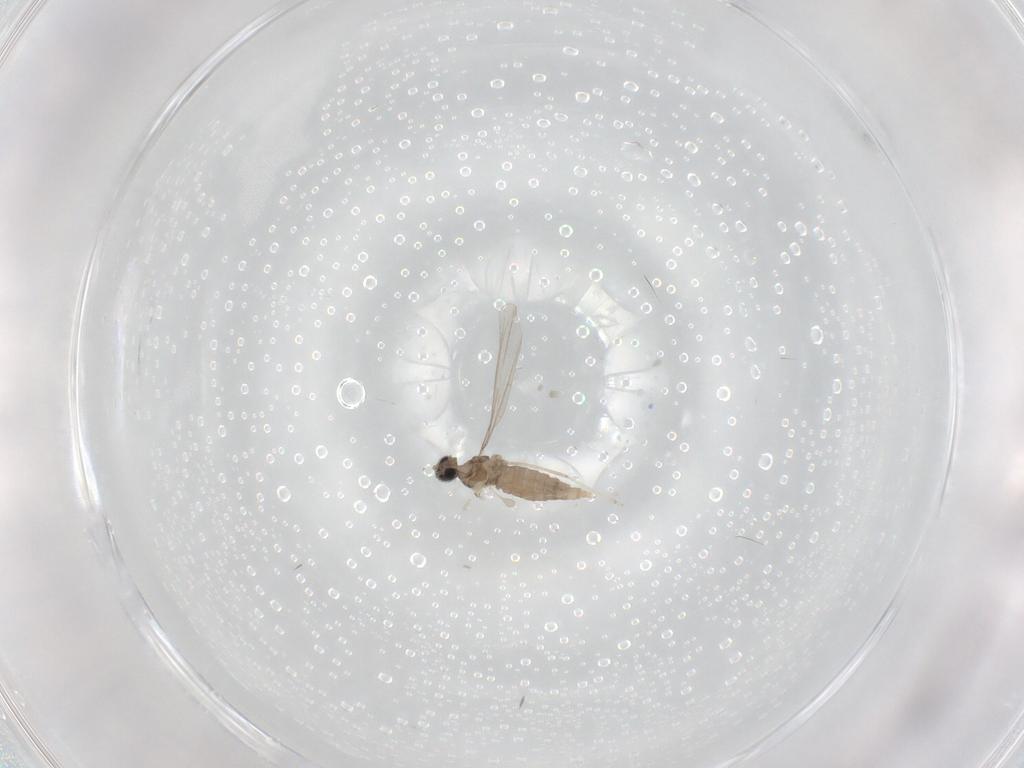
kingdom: Animalia
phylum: Arthropoda
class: Insecta
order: Diptera
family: Cecidomyiidae
